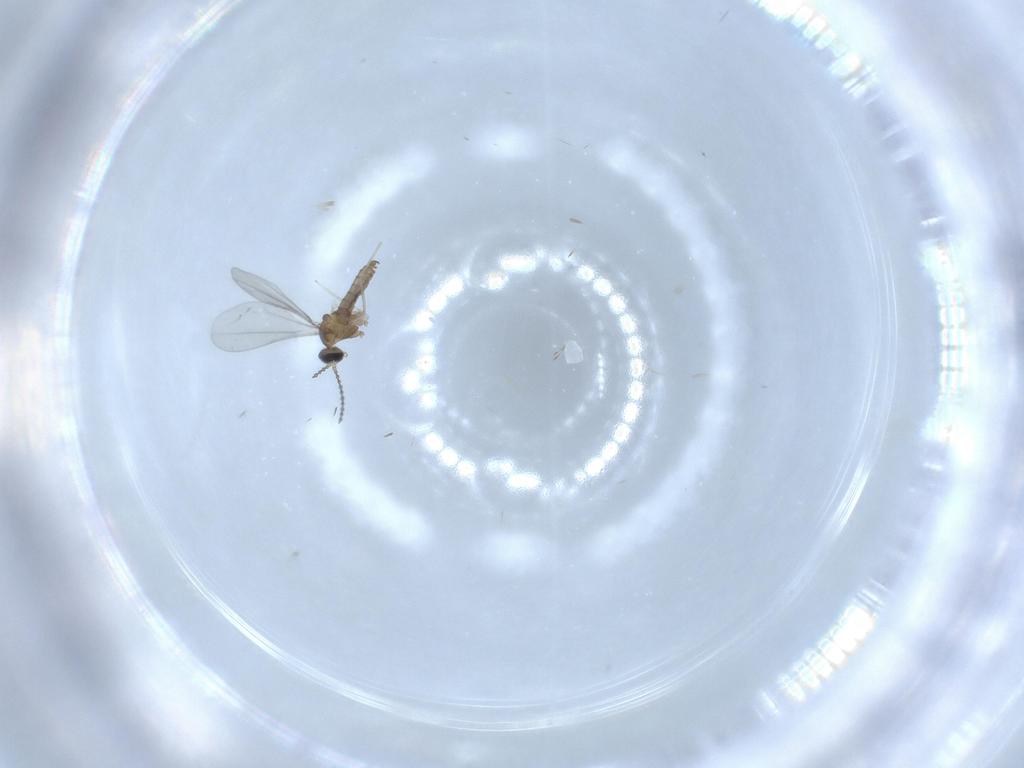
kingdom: Animalia
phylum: Arthropoda
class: Insecta
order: Diptera
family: Cecidomyiidae
